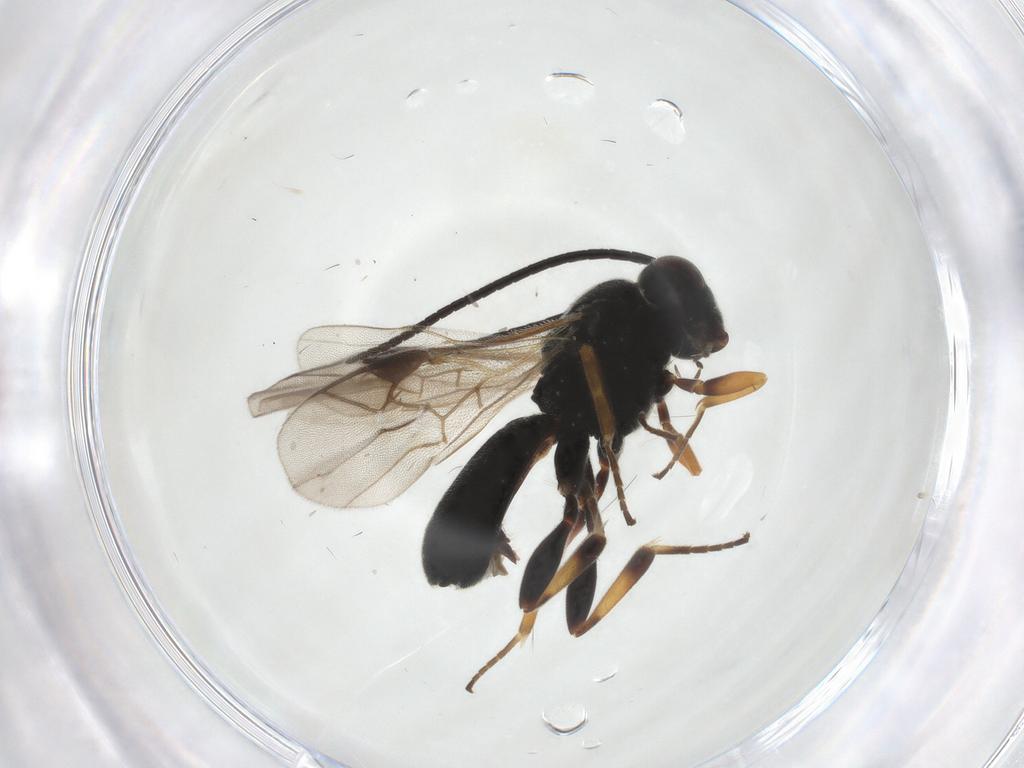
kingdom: Animalia
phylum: Arthropoda
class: Insecta
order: Hymenoptera
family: Braconidae
